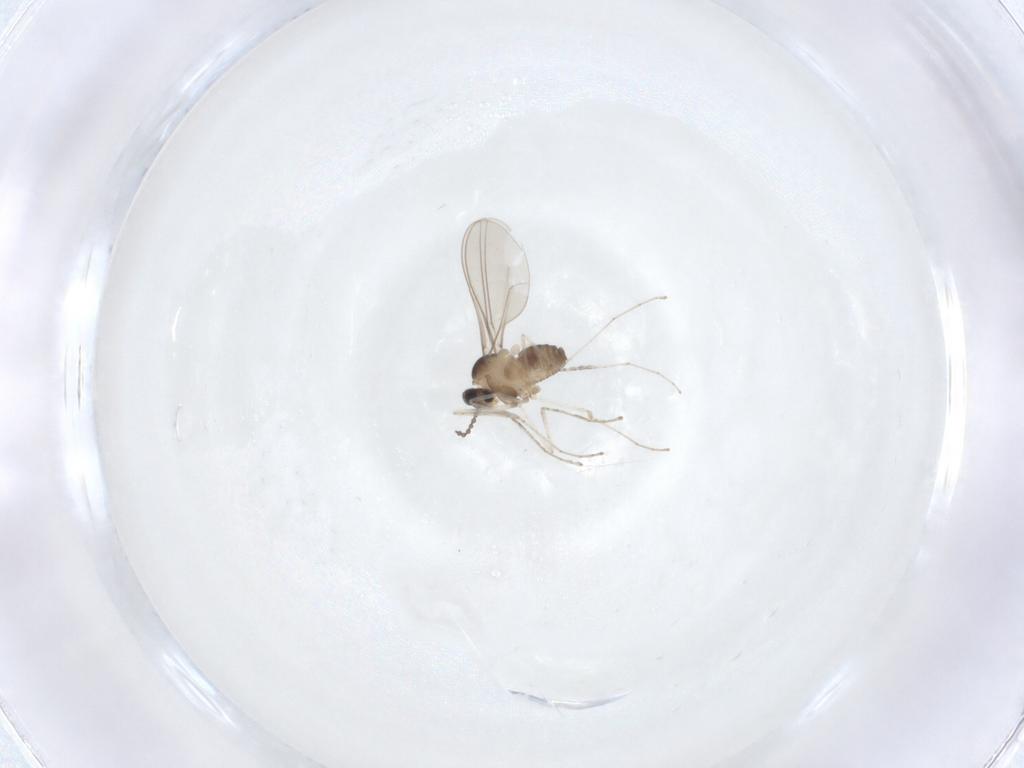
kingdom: Animalia
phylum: Arthropoda
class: Insecta
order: Diptera
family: Cecidomyiidae
